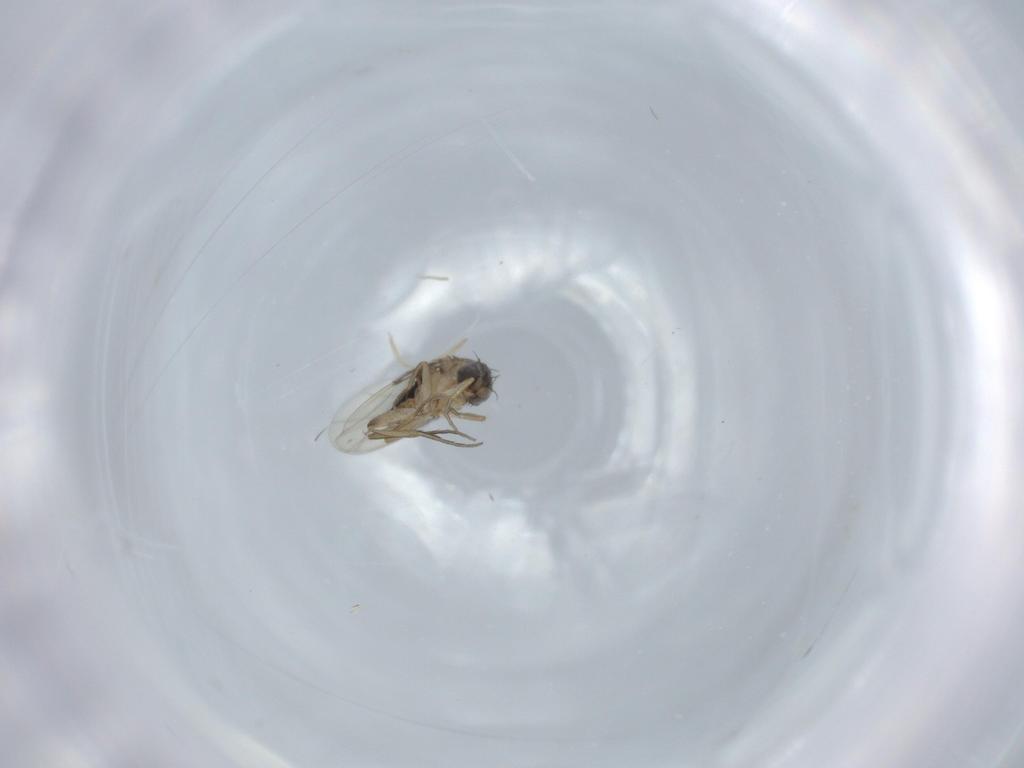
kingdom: Animalia
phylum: Arthropoda
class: Insecta
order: Diptera
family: Phoridae
